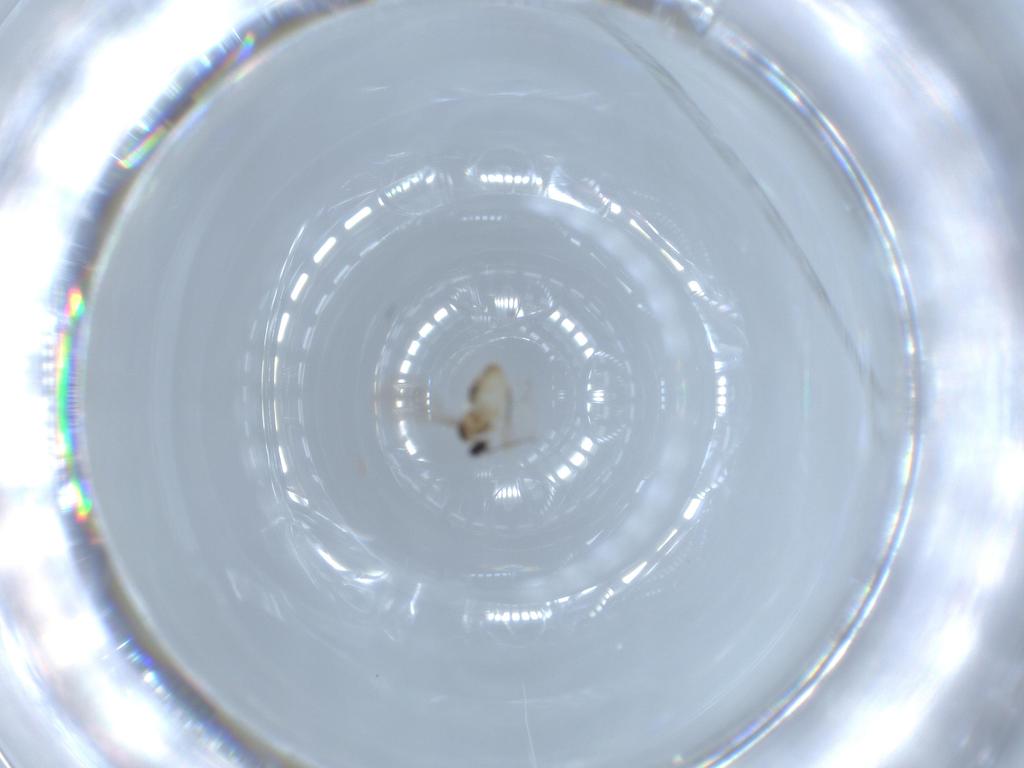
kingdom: Animalia
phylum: Arthropoda
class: Insecta
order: Diptera
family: Cecidomyiidae
